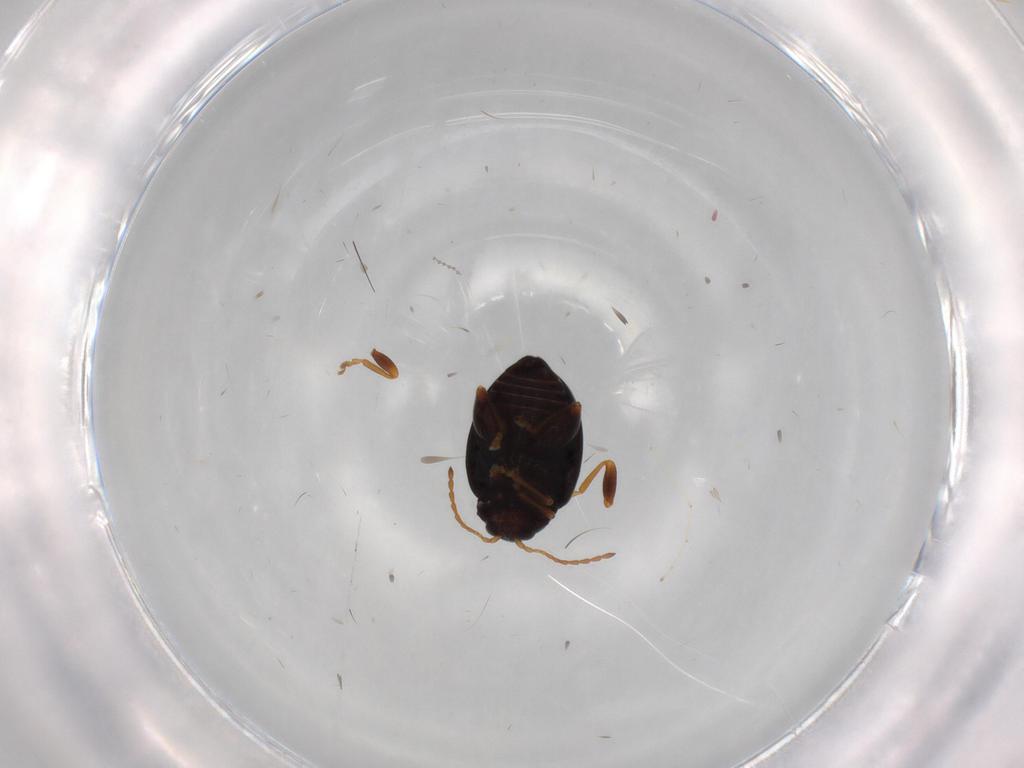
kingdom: Animalia
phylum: Arthropoda
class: Insecta
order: Coleoptera
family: Chrysomelidae
